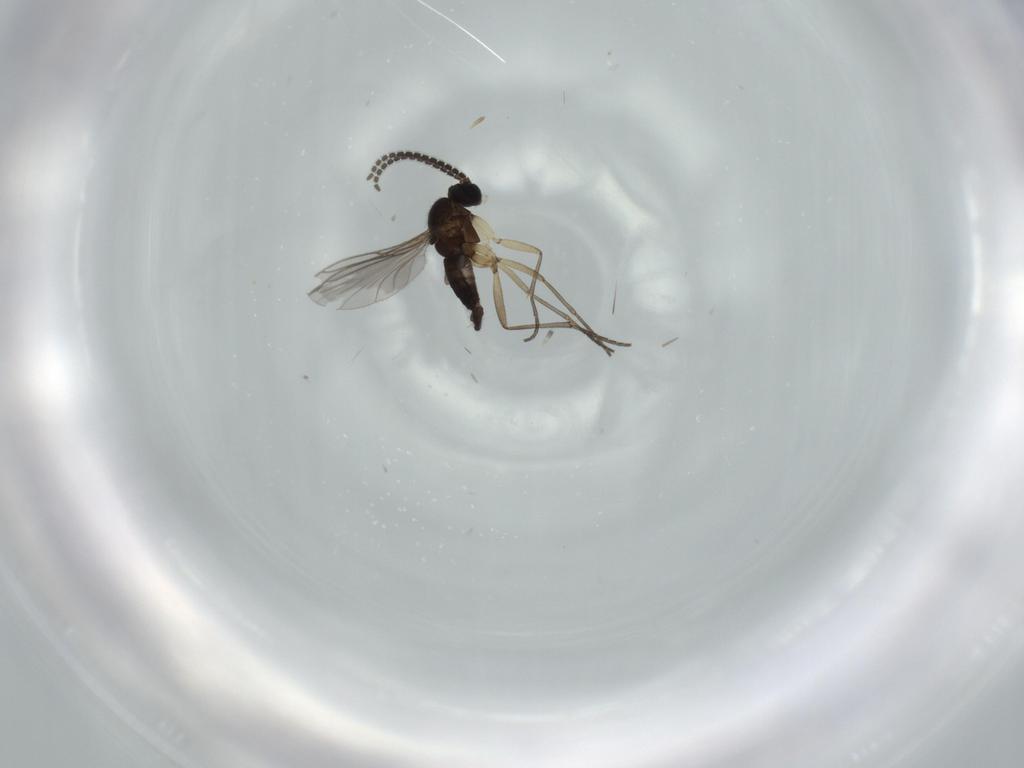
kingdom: Animalia
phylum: Arthropoda
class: Insecta
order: Diptera
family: Sciaridae
